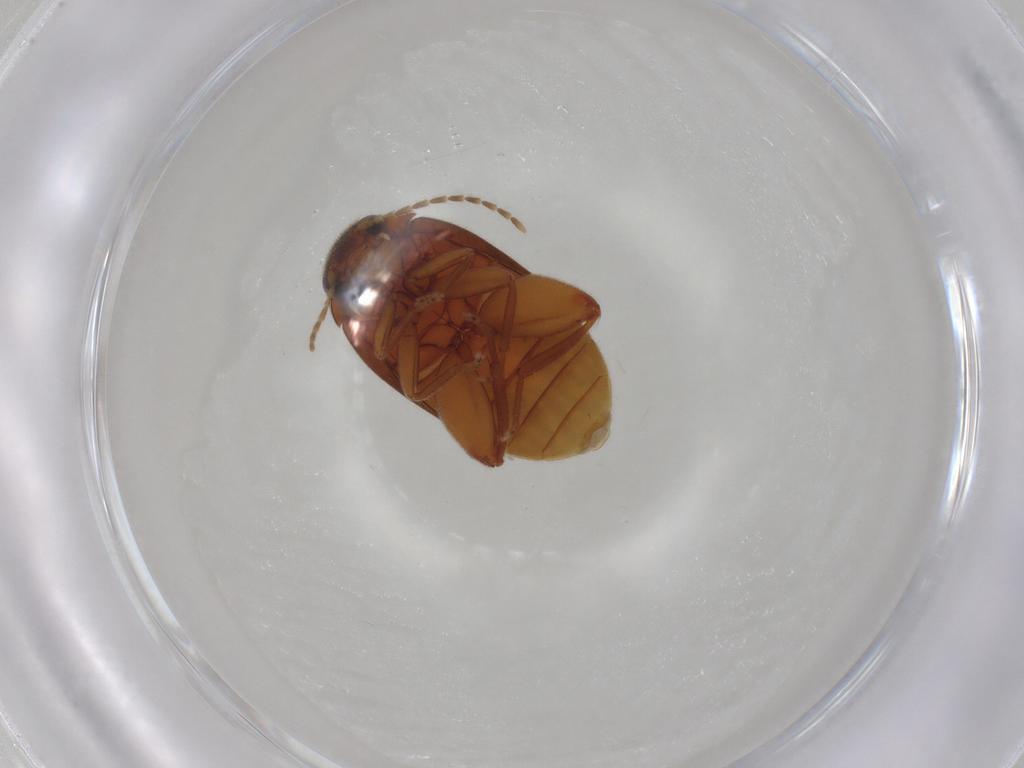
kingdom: Animalia
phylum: Arthropoda
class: Insecta
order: Coleoptera
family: Scirtidae
